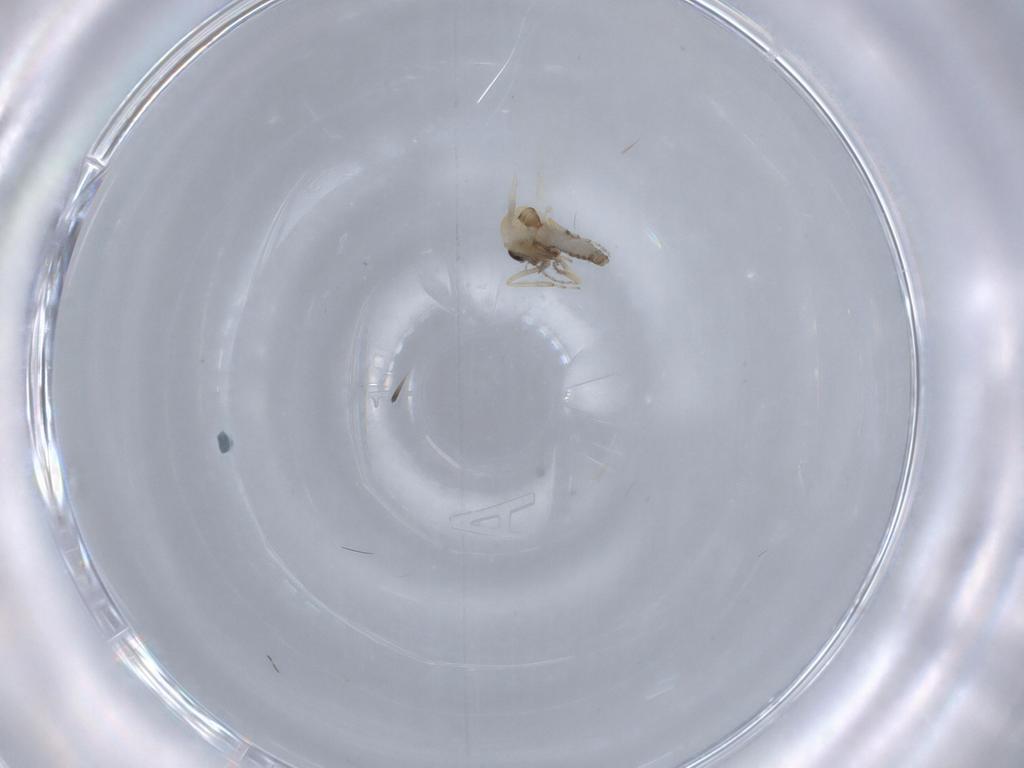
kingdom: Animalia
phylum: Arthropoda
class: Insecta
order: Diptera
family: Ceratopogonidae
